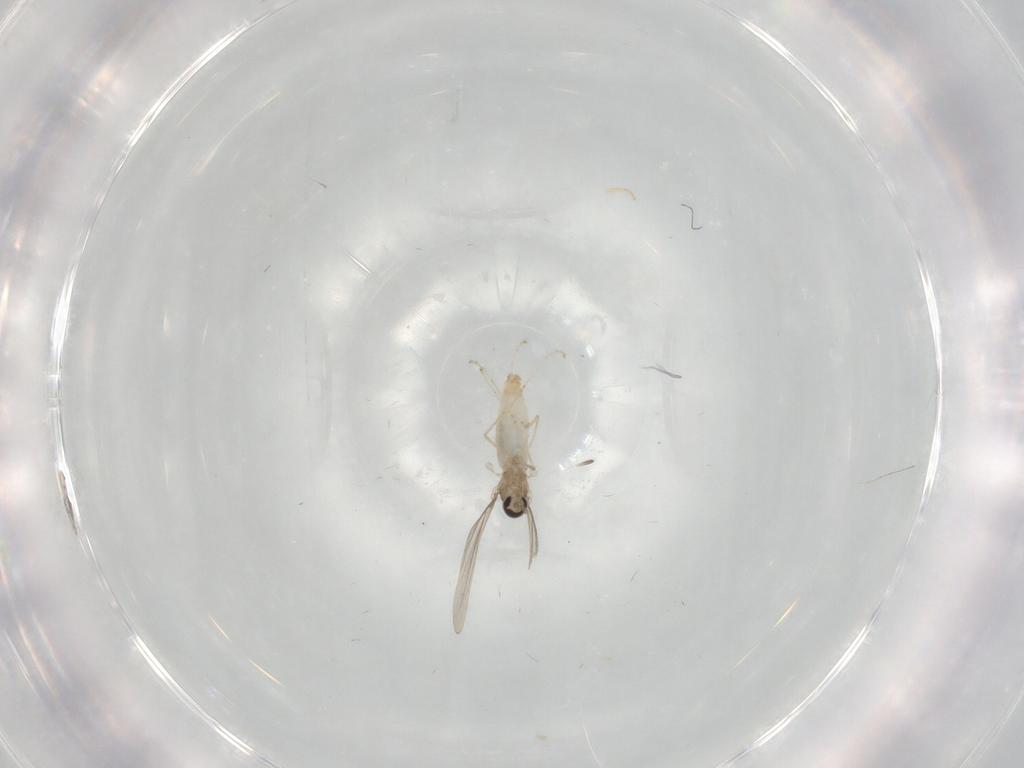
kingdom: Animalia
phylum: Arthropoda
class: Insecta
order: Diptera
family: Cecidomyiidae
